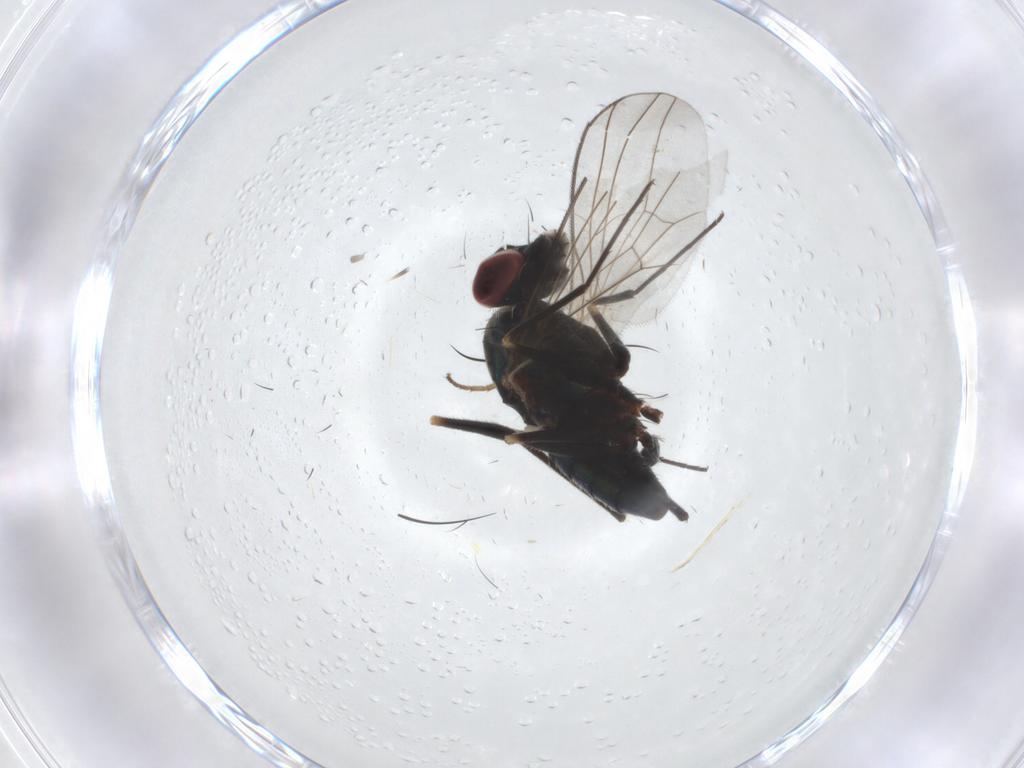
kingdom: Animalia
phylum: Arthropoda
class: Insecta
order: Diptera
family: Dolichopodidae
